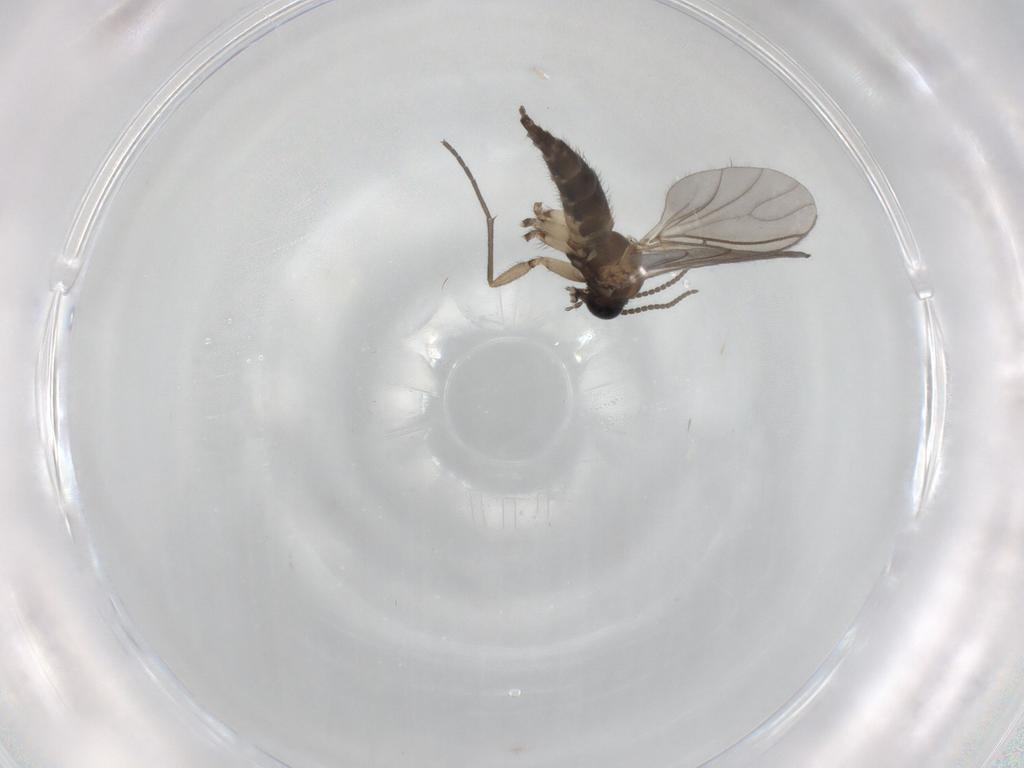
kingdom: Animalia
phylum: Arthropoda
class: Insecta
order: Diptera
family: Sciaridae
